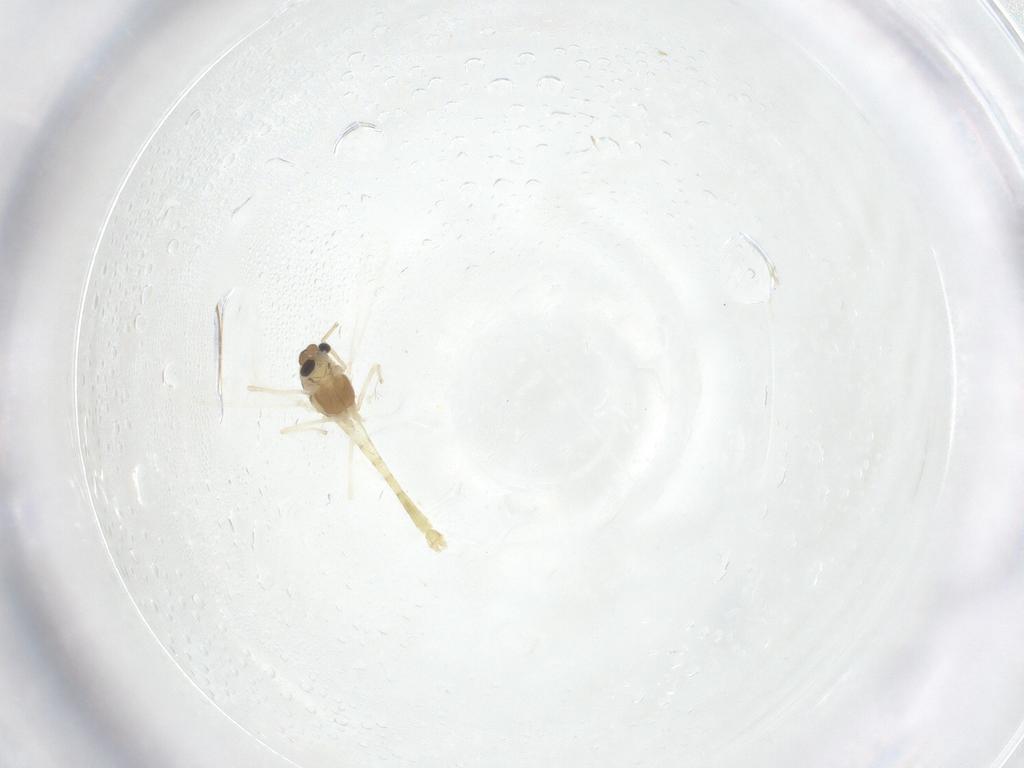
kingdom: Animalia
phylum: Arthropoda
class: Insecta
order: Diptera
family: Chironomidae
